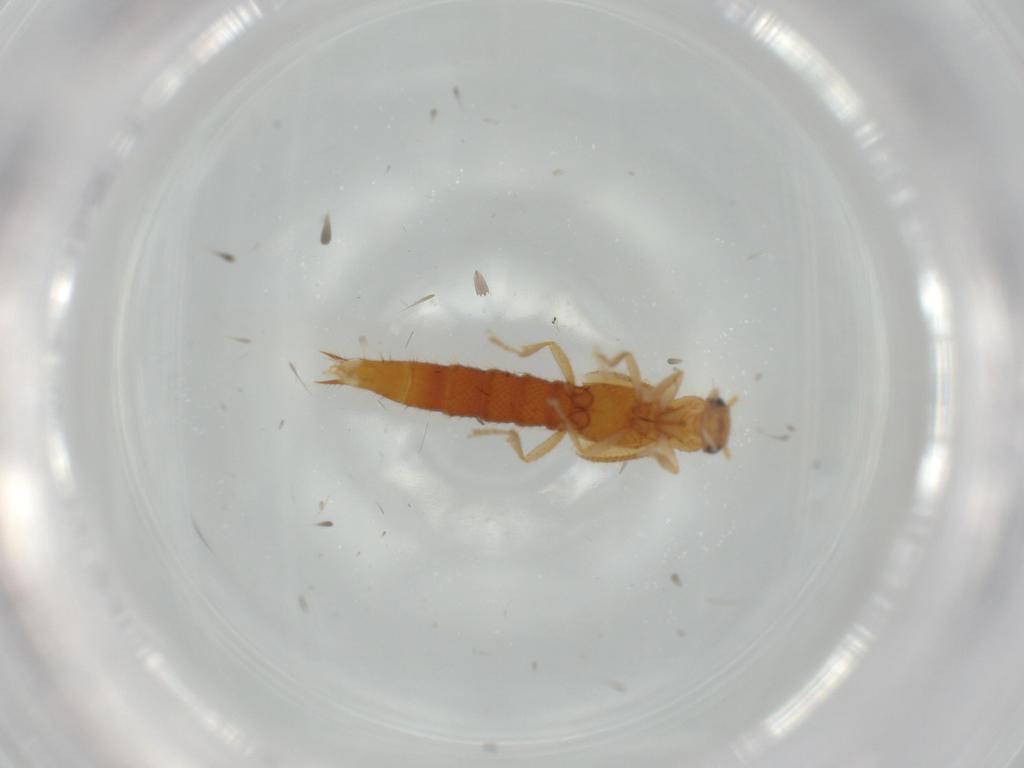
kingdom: Animalia
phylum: Arthropoda
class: Insecta
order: Coleoptera
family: Staphylinidae
